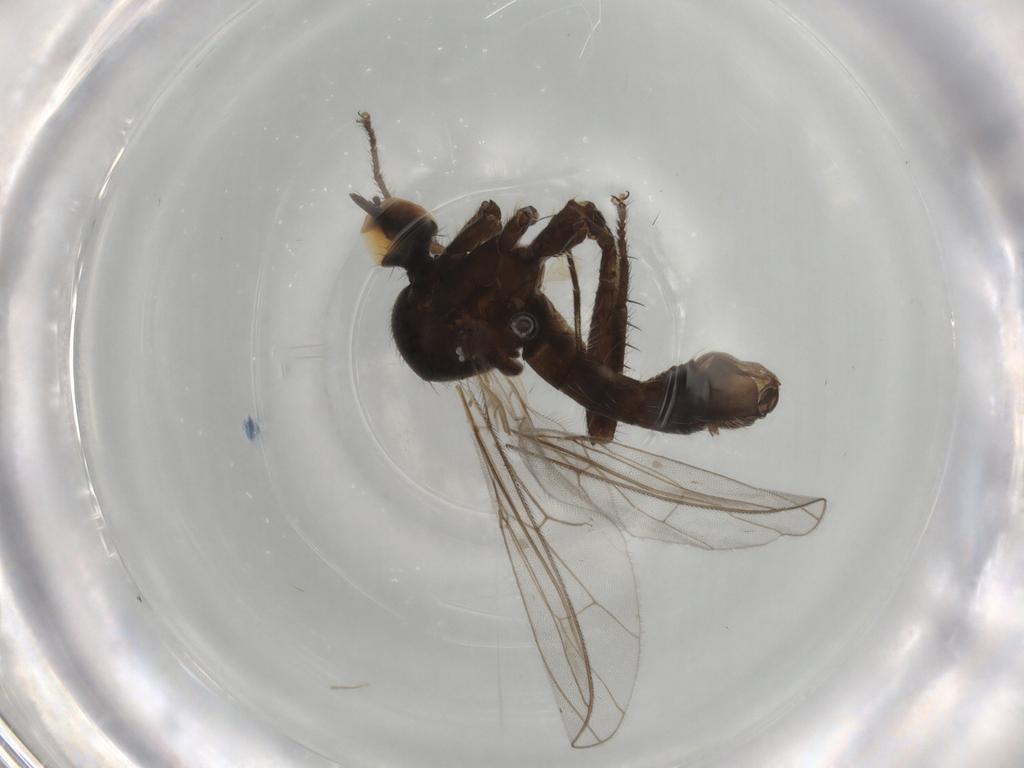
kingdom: Animalia
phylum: Arthropoda
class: Insecta
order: Diptera
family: Hybotidae
